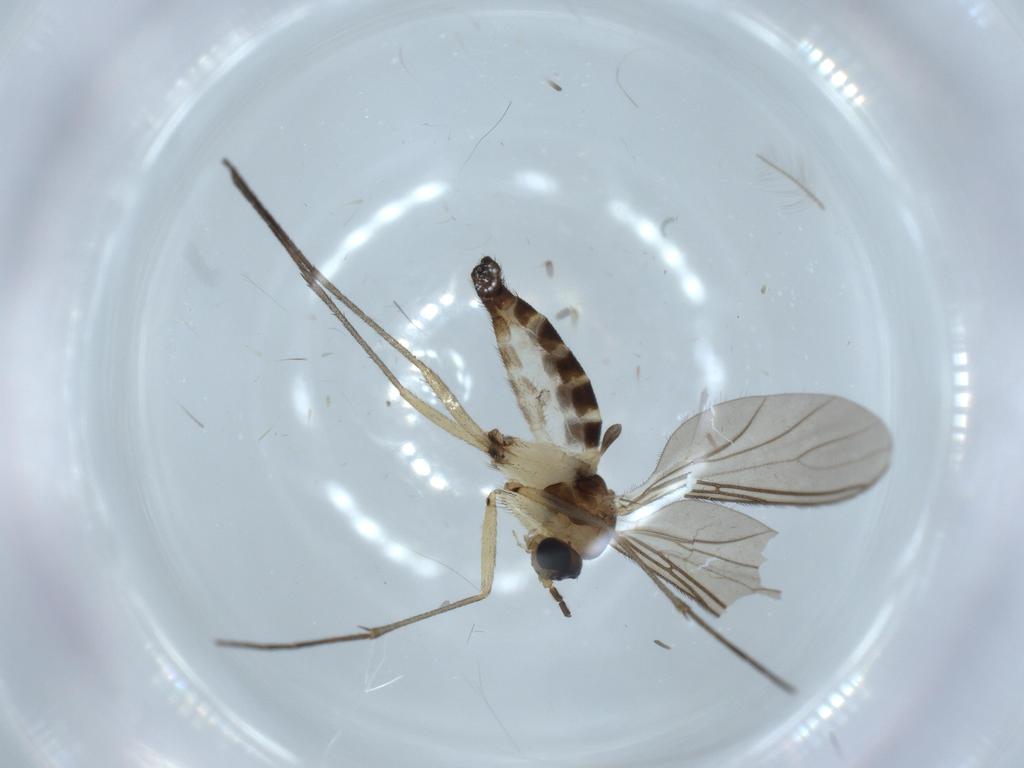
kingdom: Animalia
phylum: Arthropoda
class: Insecta
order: Diptera
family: Sciaridae
